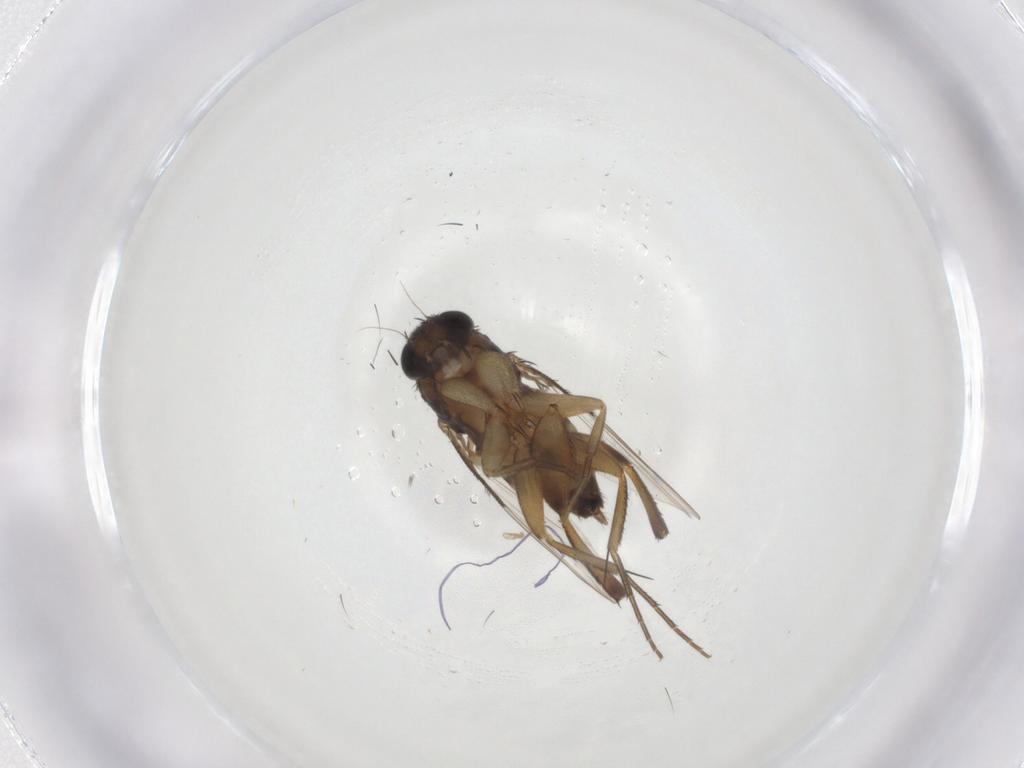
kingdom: Animalia
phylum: Arthropoda
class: Insecta
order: Diptera
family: Phoridae
